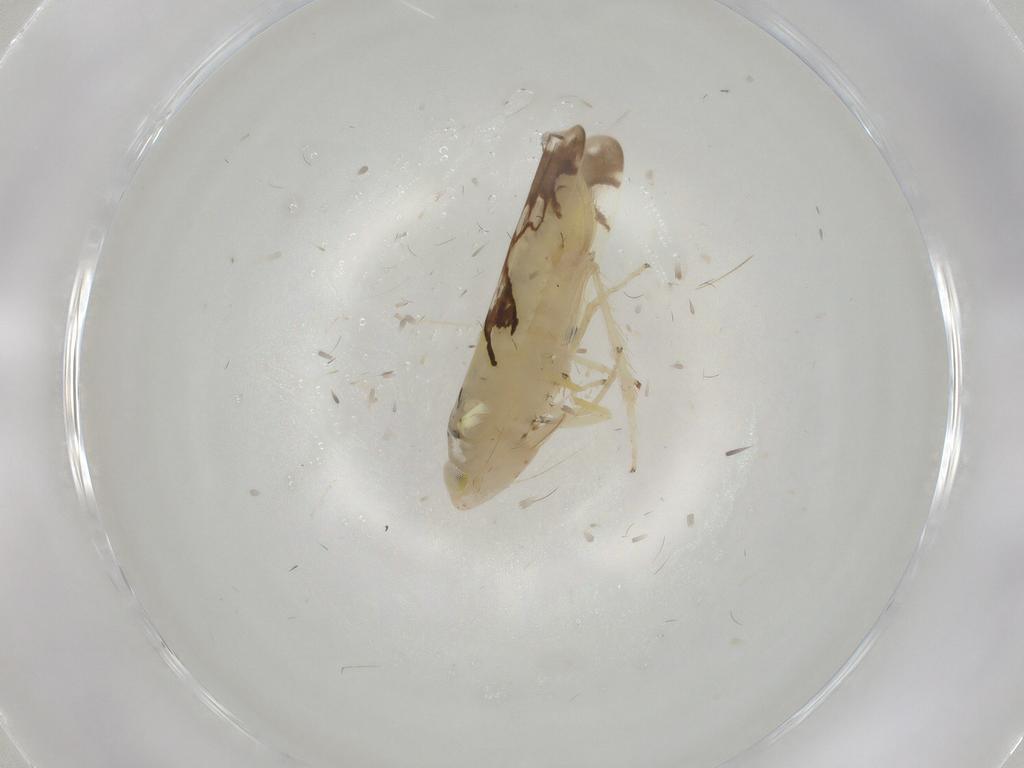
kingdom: Animalia
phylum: Arthropoda
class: Insecta
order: Hemiptera
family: Cicadellidae
